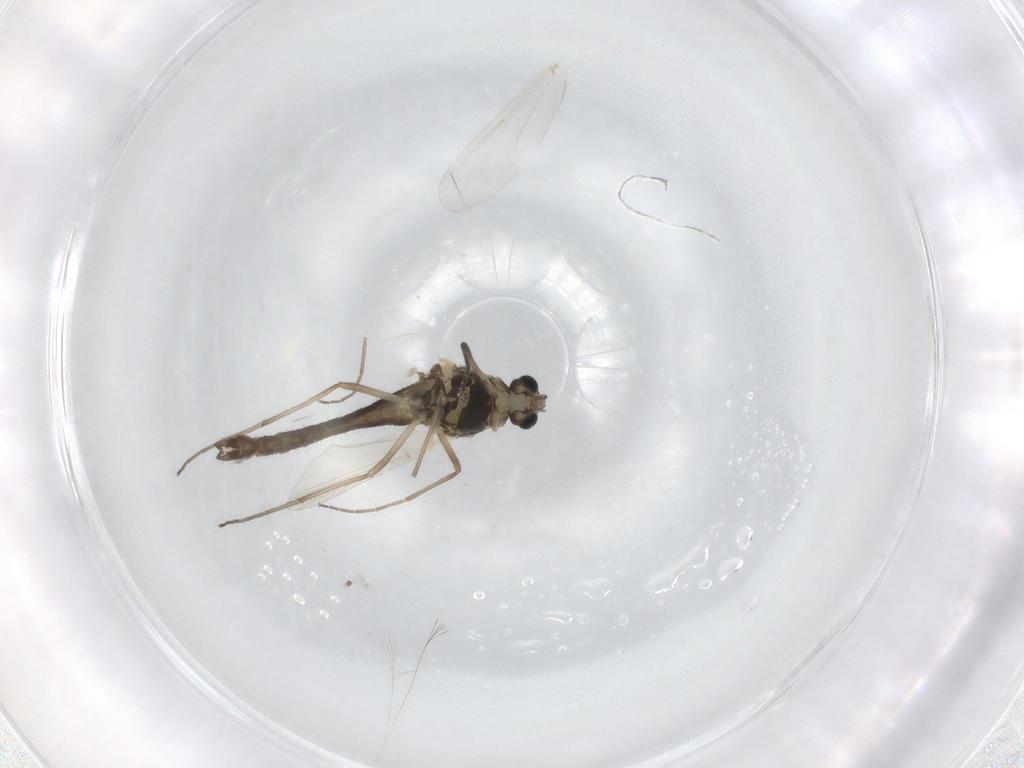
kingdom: Animalia
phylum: Arthropoda
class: Insecta
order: Diptera
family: Chironomidae
